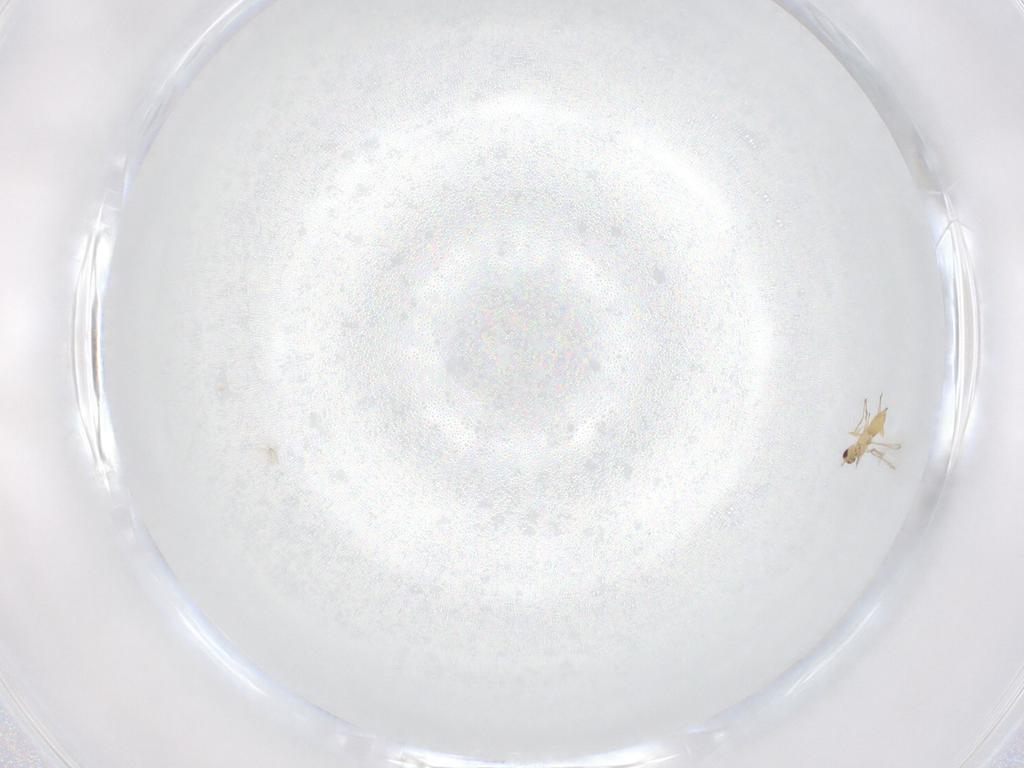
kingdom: Animalia
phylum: Arthropoda
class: Insecta
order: Hymenoptera
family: Mymaridae
